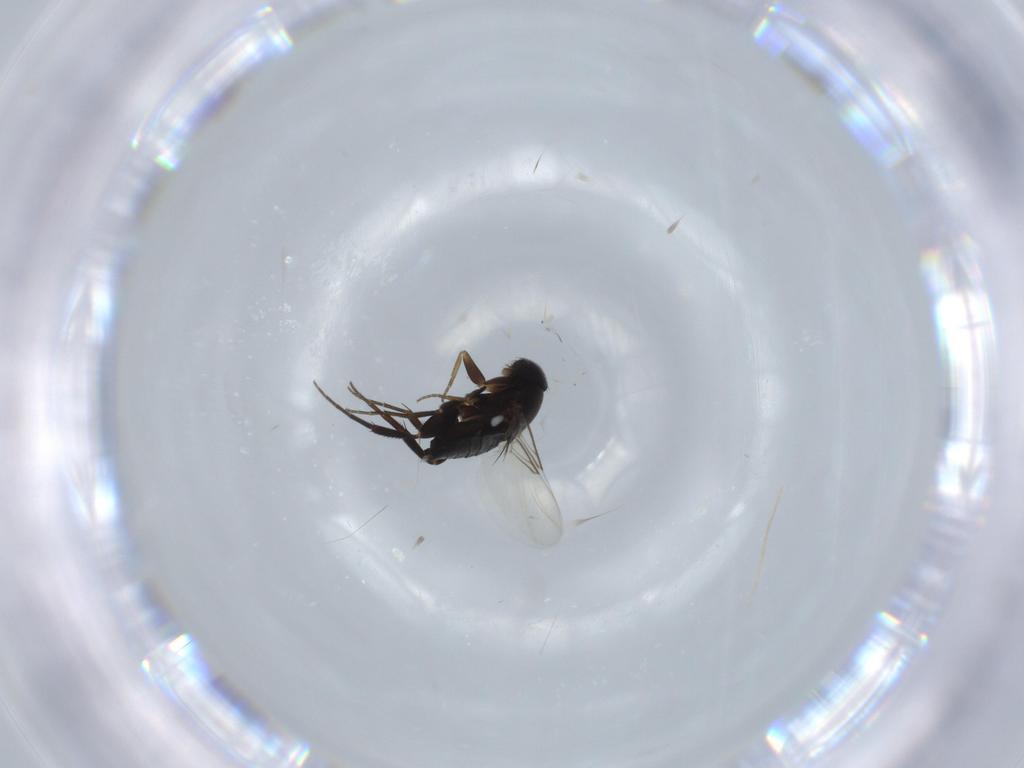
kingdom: Animalia
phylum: Arthropoda
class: Insecta
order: Diptera
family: Phoridae
